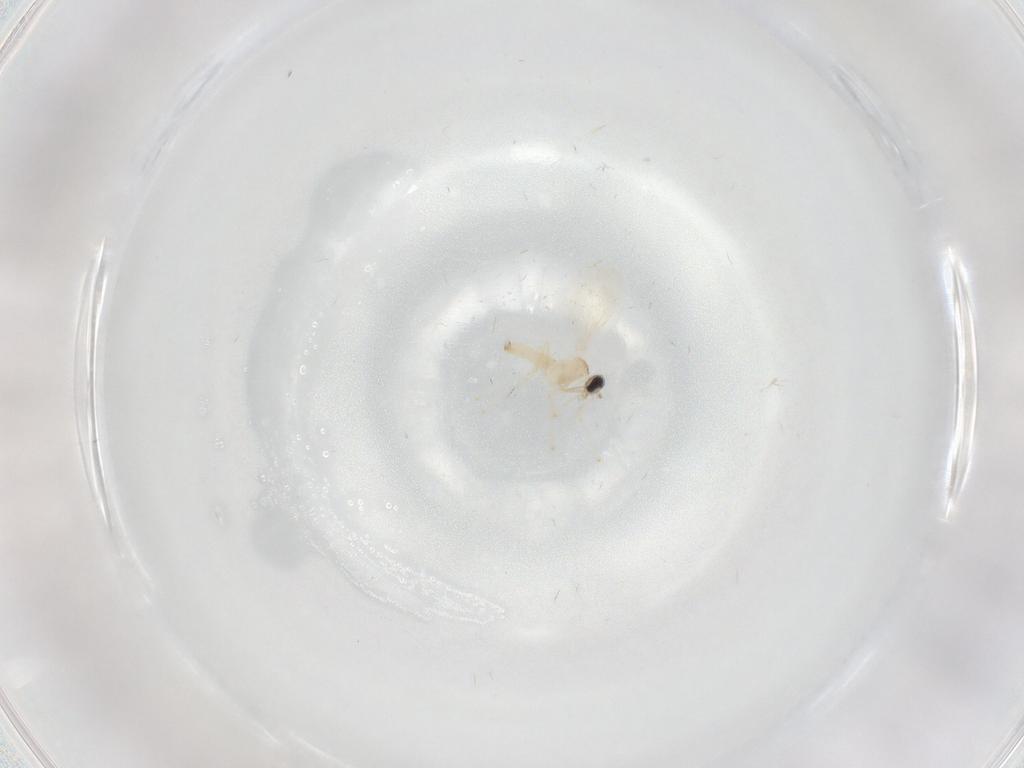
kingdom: Animalia
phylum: Arthropoda
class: Insecta
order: Diptera
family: Cecidomyiidae
